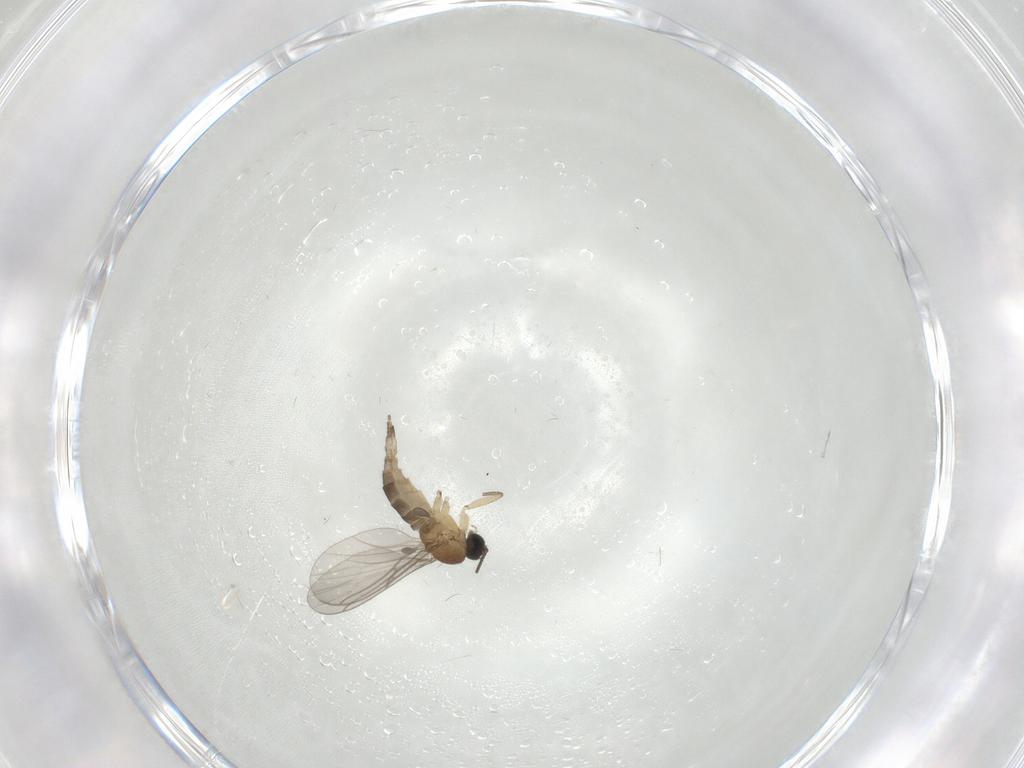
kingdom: Animalia
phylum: Arthropoda
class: Insecta
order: Diptera
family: Sciaridae
